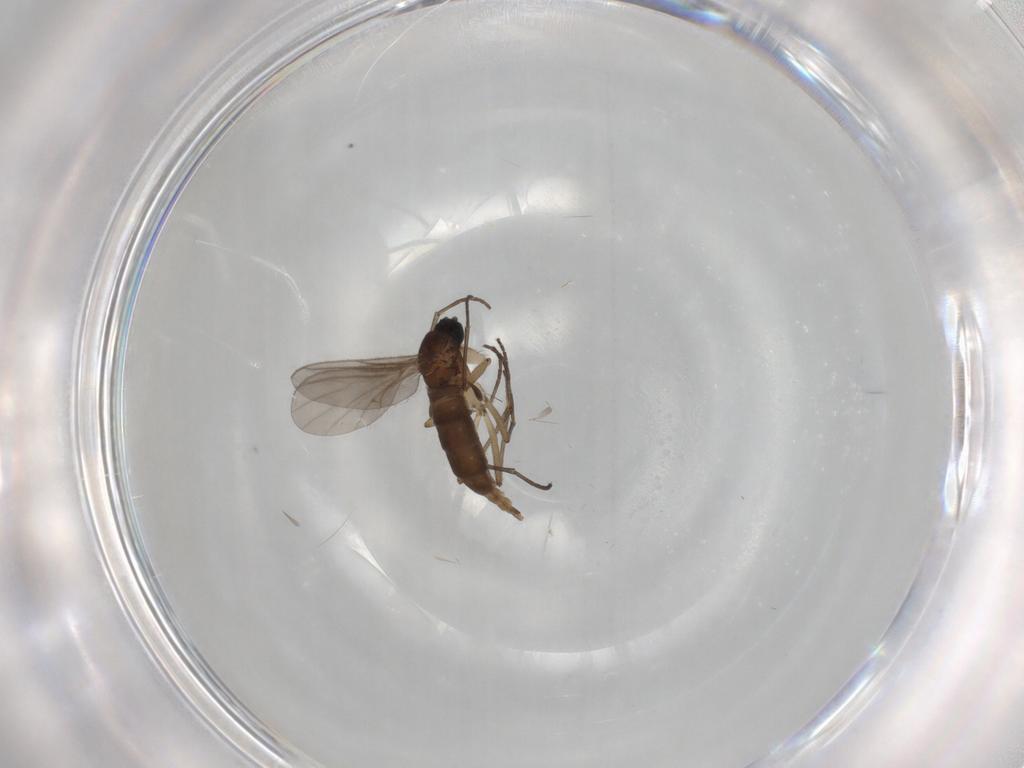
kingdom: Animalia
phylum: Arthropoda
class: Insecta
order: Diptera
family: Sciaridae
